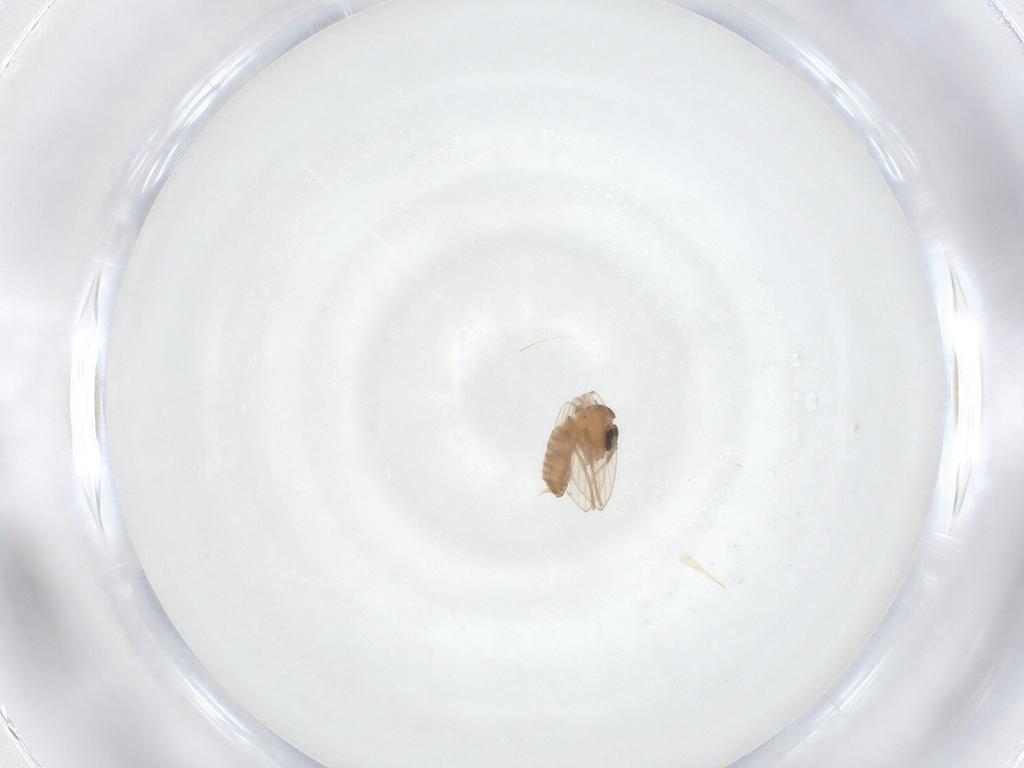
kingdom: Animalia
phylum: Arthropoda
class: Insecta
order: Diptera
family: Psychodidae
